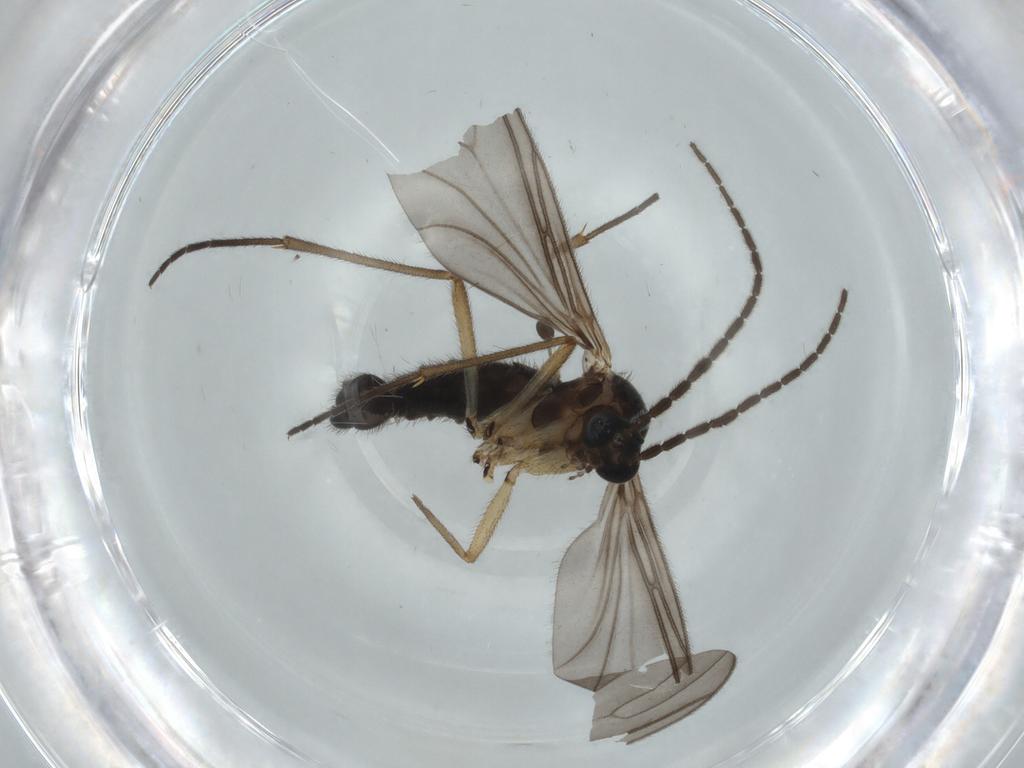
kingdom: Animalia
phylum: Arthropoda
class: Insecta
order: Diptera
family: Sciaridae
